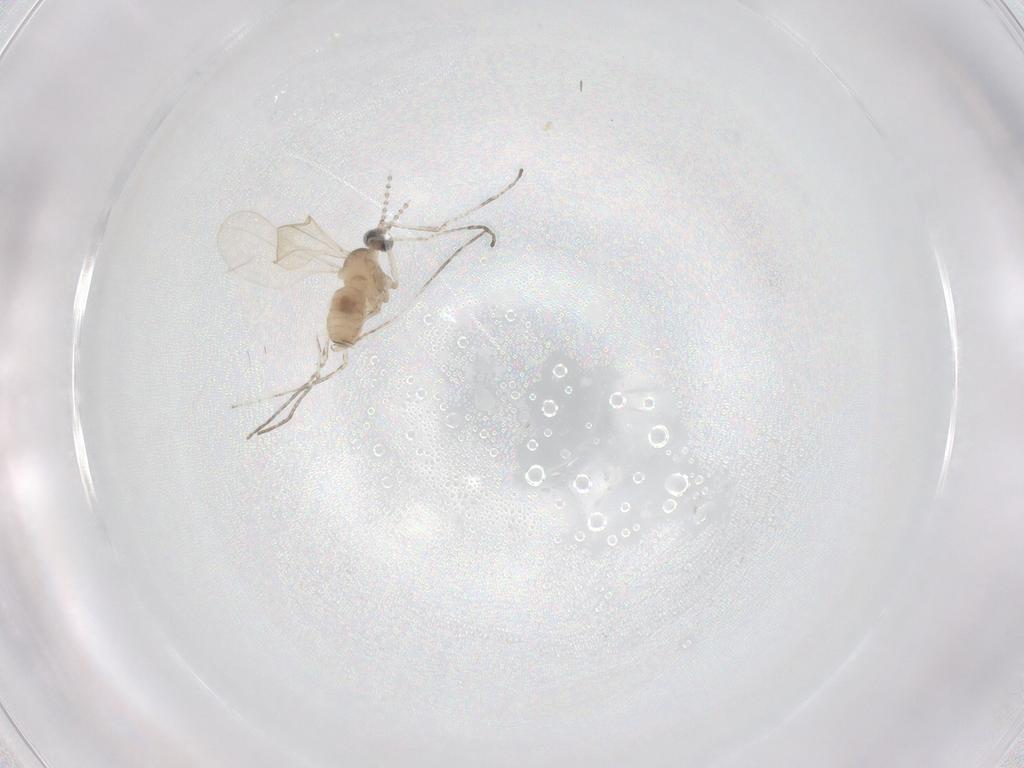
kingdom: Animalia
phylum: Arthropoda
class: Insecta
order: Diptera
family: Cecidomyiidae
